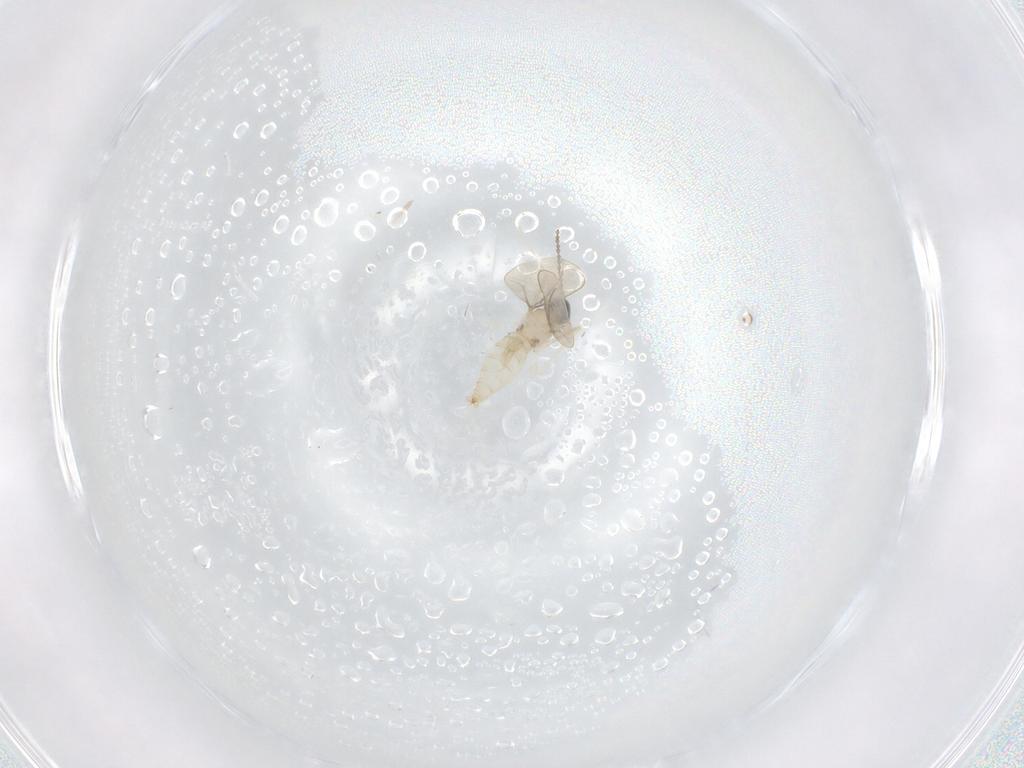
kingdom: Animalia
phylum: Arthropoda
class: Insecta
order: Diptera
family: Cecidomyiidae
